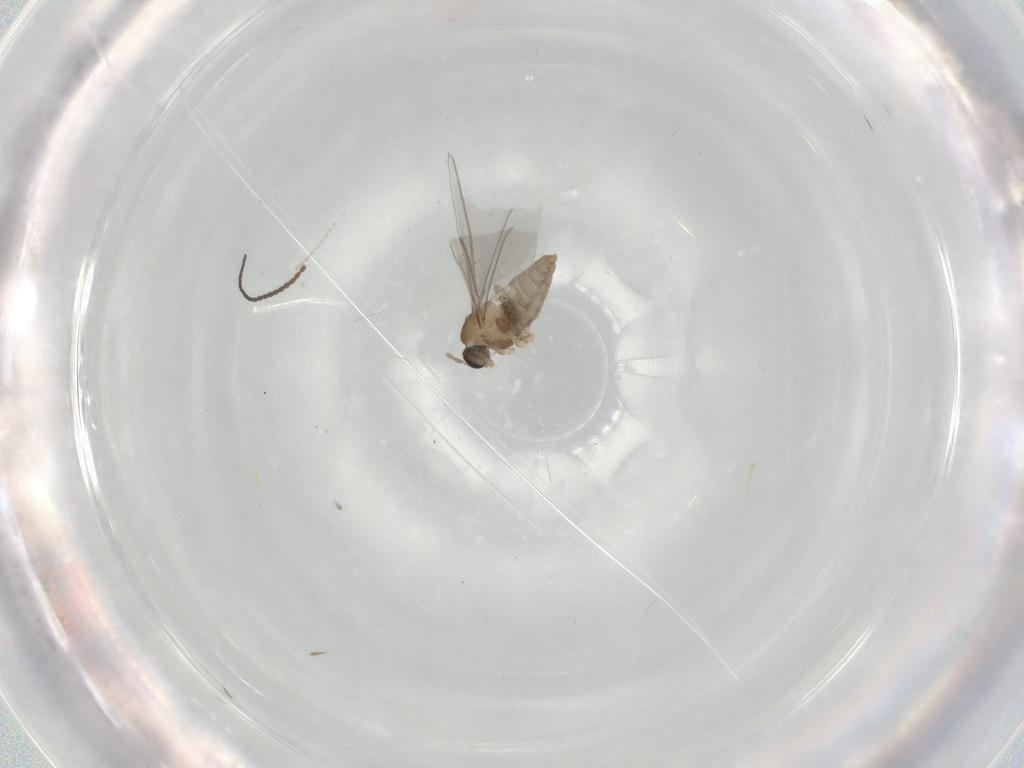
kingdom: Animalia
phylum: Arthropoda
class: Insecta
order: Diptera
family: Cecidomyiidae
